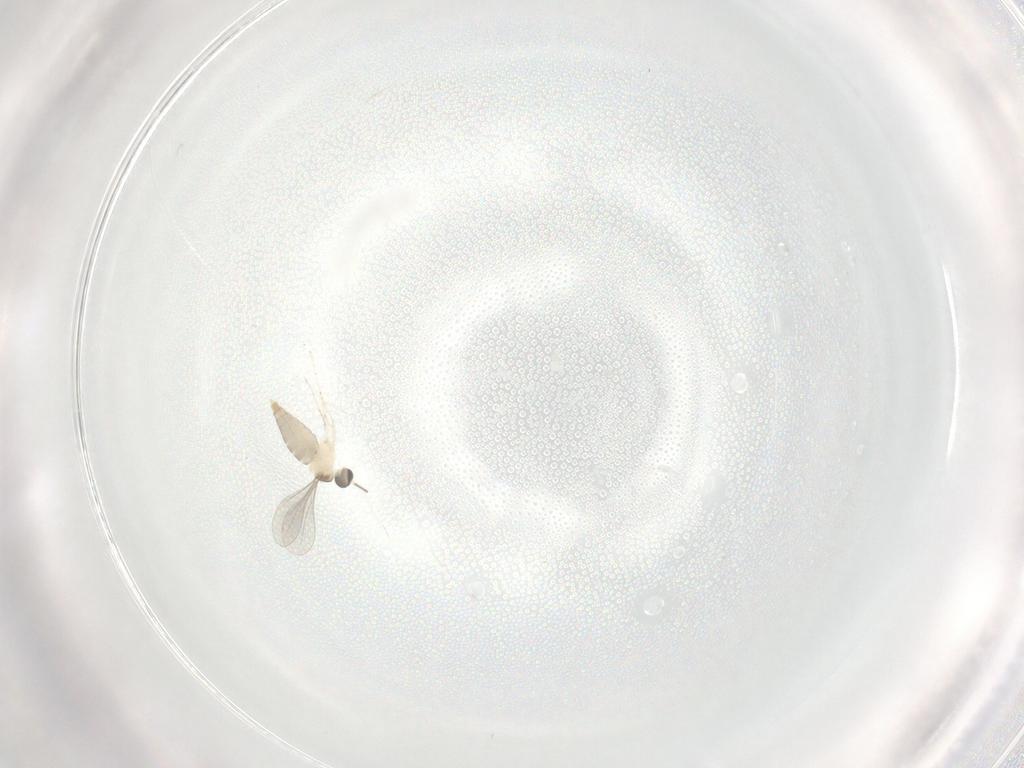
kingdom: Animalia
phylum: Arthropoda
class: Insecta
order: Diptera
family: Cecidomyiidae
